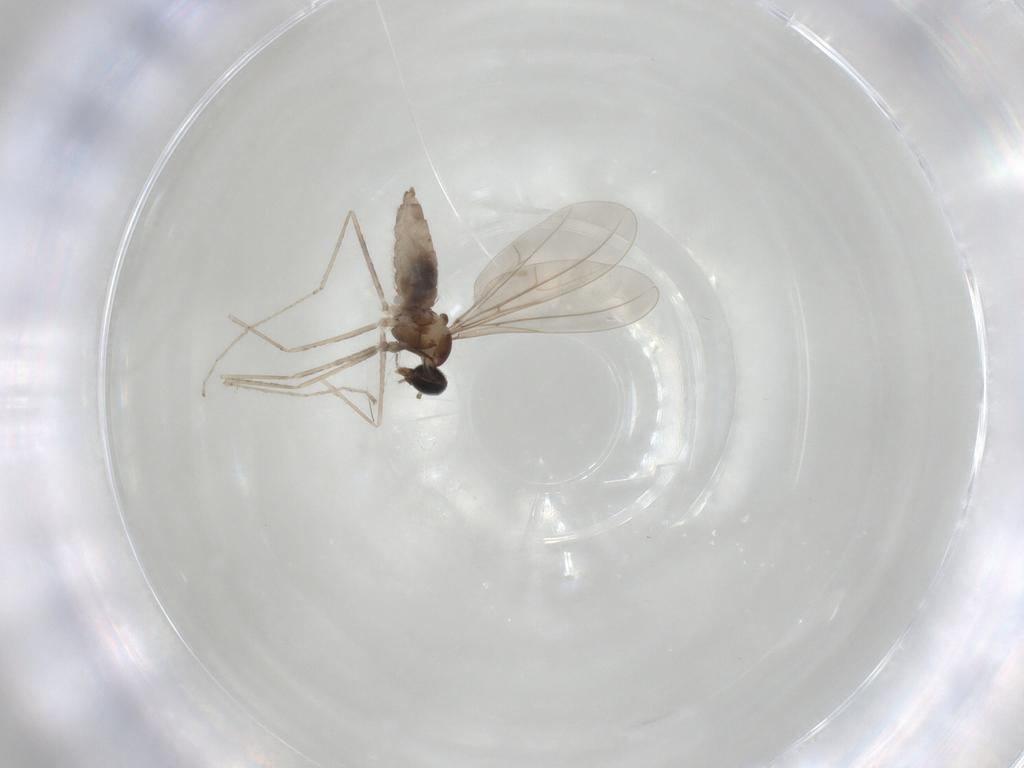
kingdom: Animalia
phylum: Arthropoda
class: Insecta
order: Diptera
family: Cecidomyiidae
